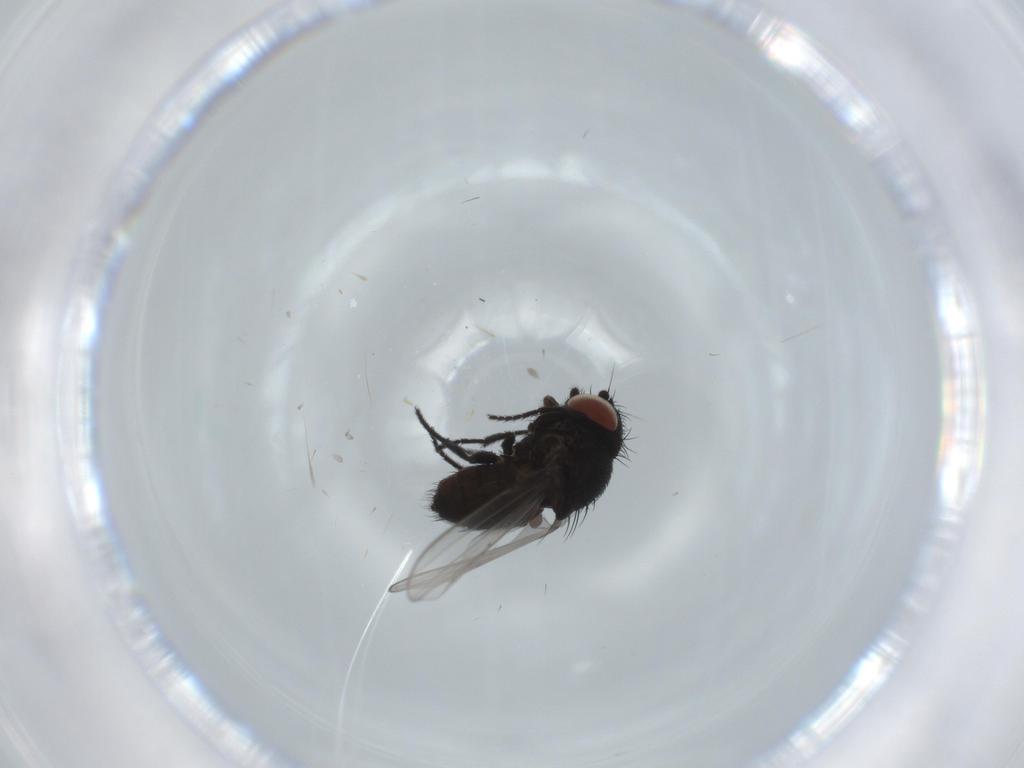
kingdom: Animalia
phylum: Arthropoda
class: Insecta
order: Diptera
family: Milichiidae
